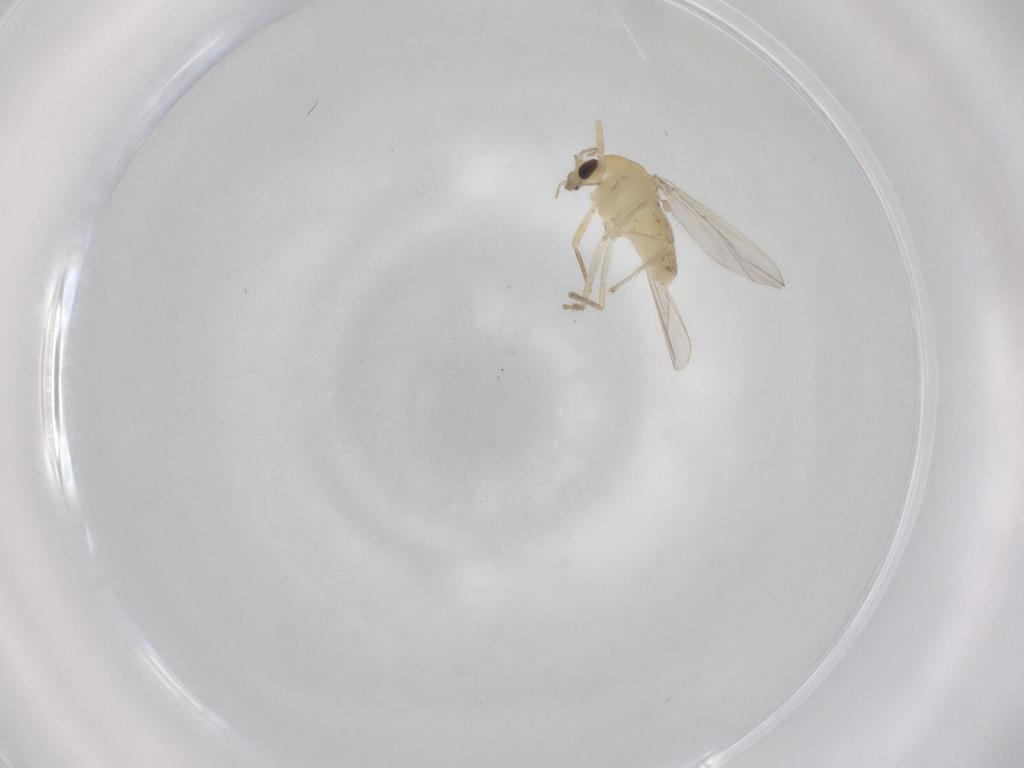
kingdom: Animalia
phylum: Arthropoda
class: Insecta
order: Diptera
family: Chironomidae
